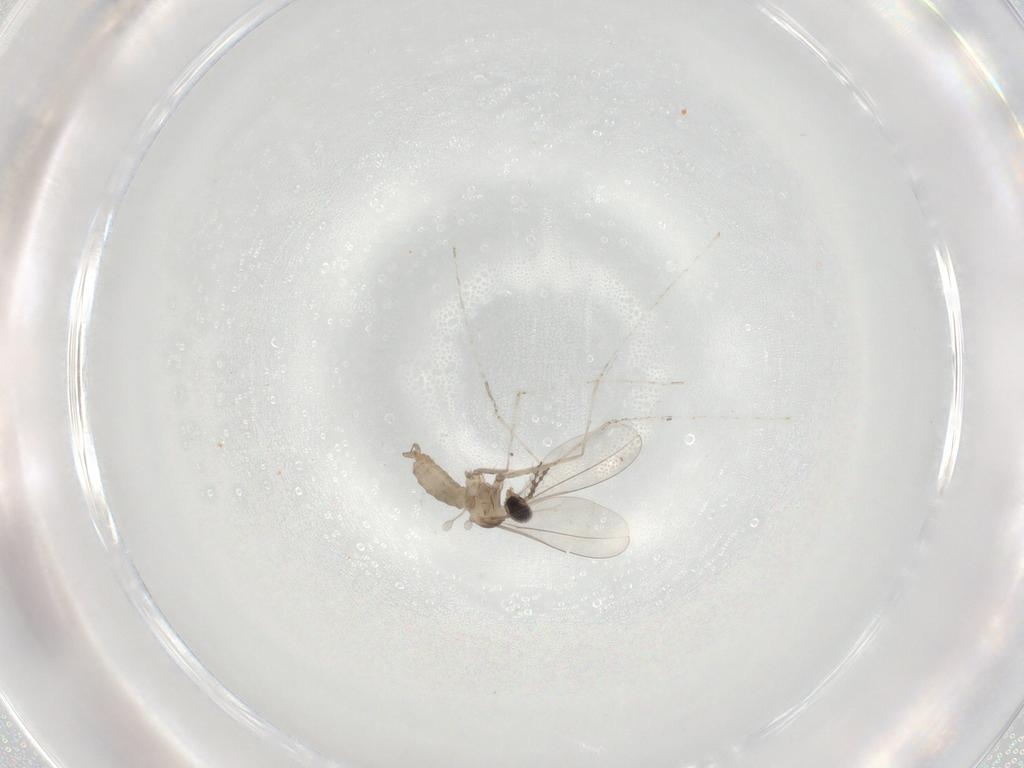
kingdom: Animalia
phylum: Arthropoda
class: Insecta
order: Diptera
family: Cecidomyiidae
